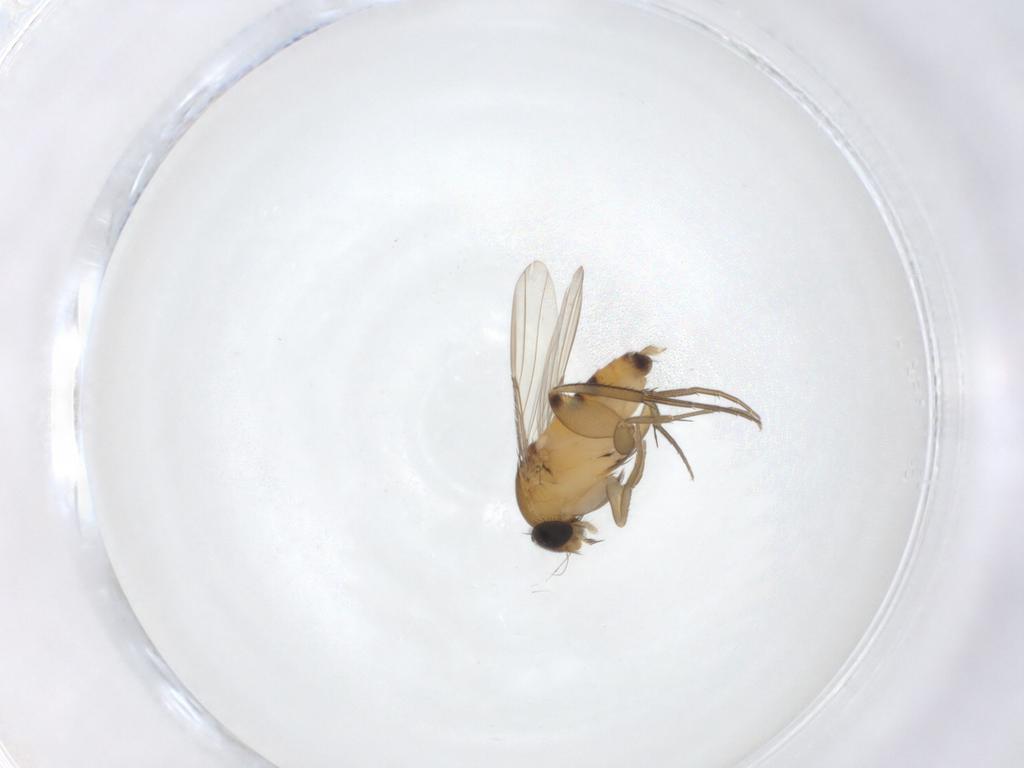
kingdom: Animalia
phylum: Arthropoda
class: Insecta
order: Diptera
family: Phoridae
